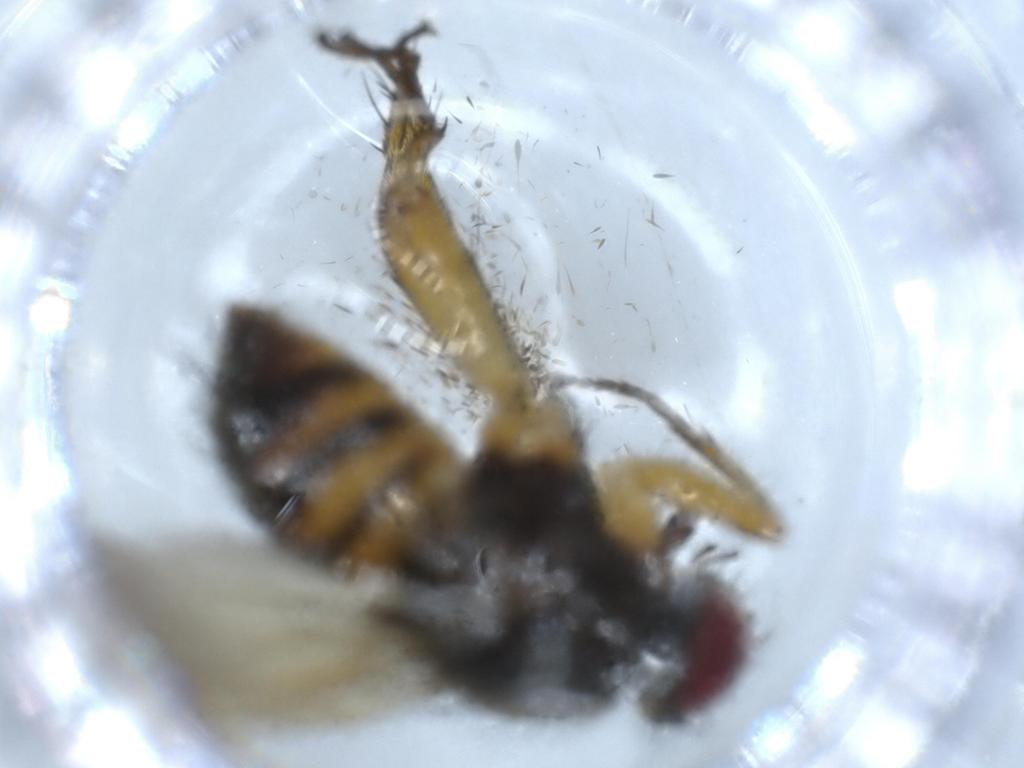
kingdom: Animalia
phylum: Arthropoda
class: Insecta
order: Diptera
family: Muscidae
